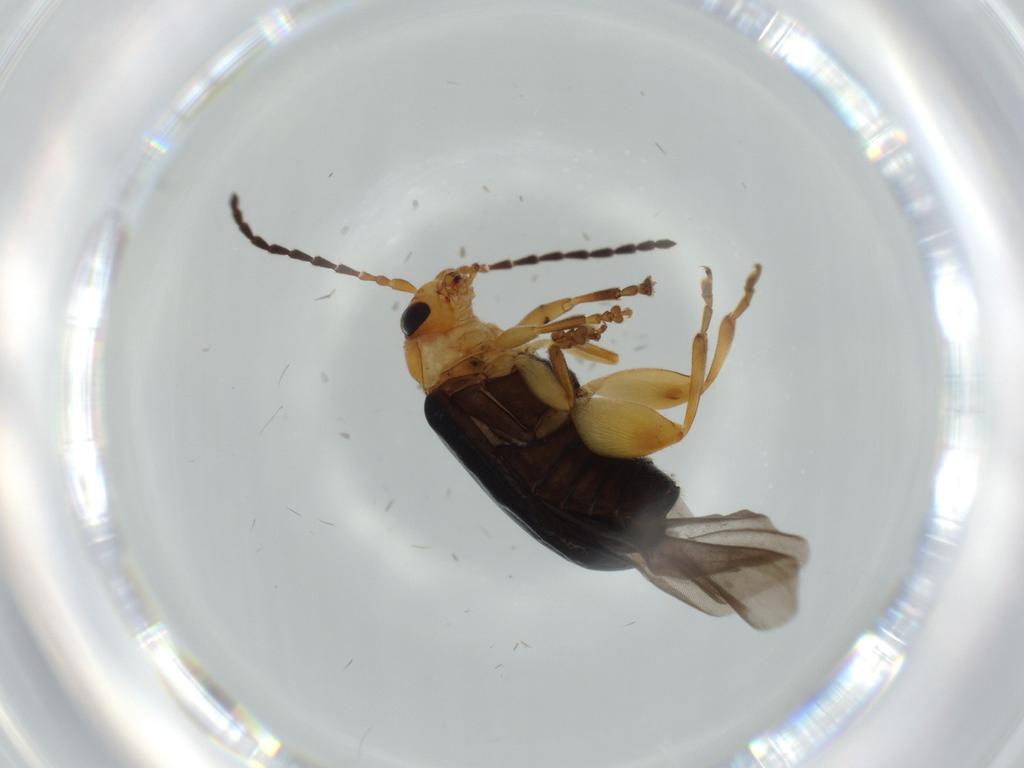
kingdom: Animalia
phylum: Arthropoda
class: Insecta
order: Coleoptera
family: Chrysomelidae
